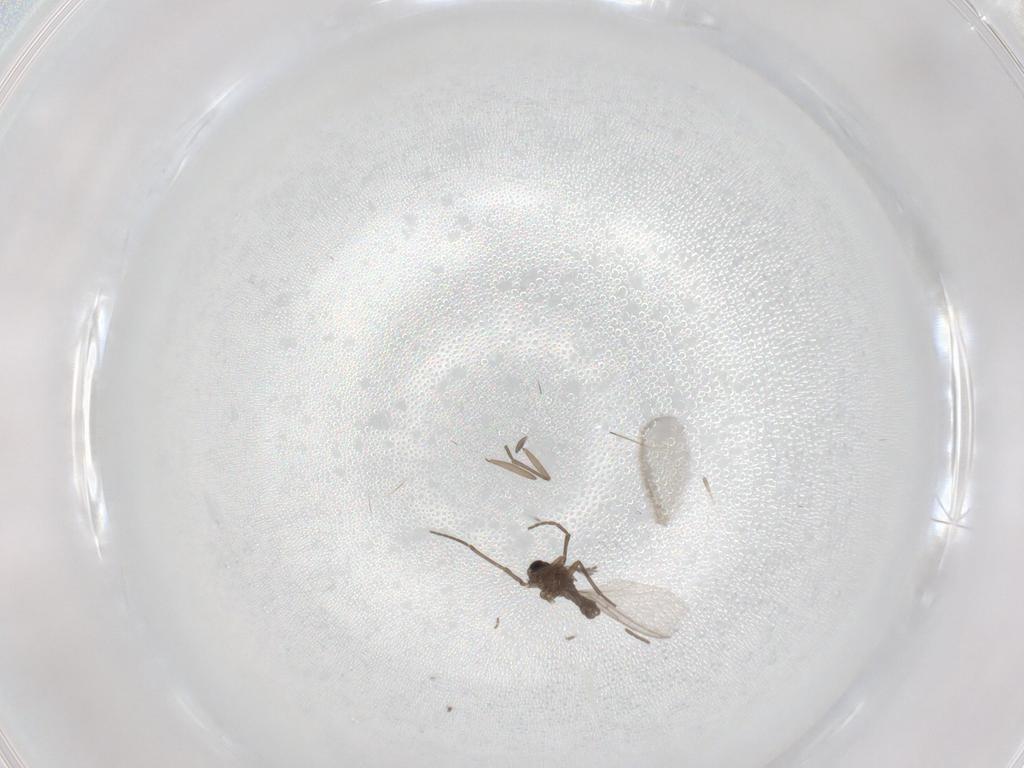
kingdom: Animalia
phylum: Arthropoda
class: Insecta
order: Diptera
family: Sciaridae
